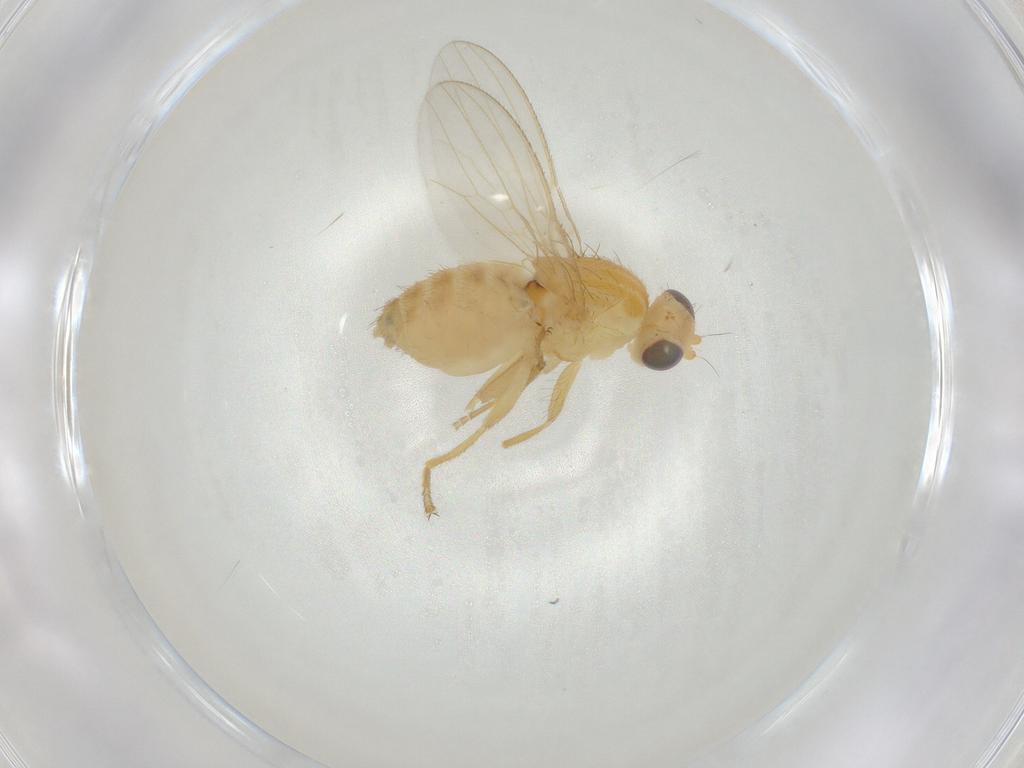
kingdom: Animalia
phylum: Arthropoda
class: Insecta
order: Diptera
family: Chyromyidae
